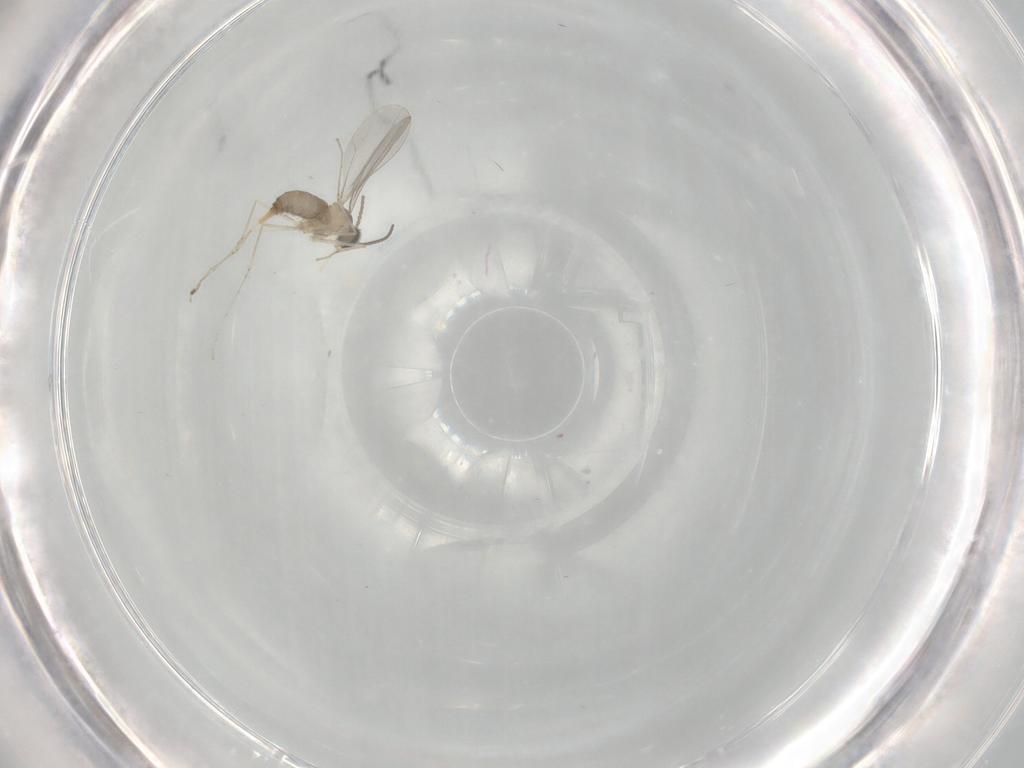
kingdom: Animalia
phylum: Arthropoda
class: Insecta
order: Diptera
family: Cecidomyiidae
